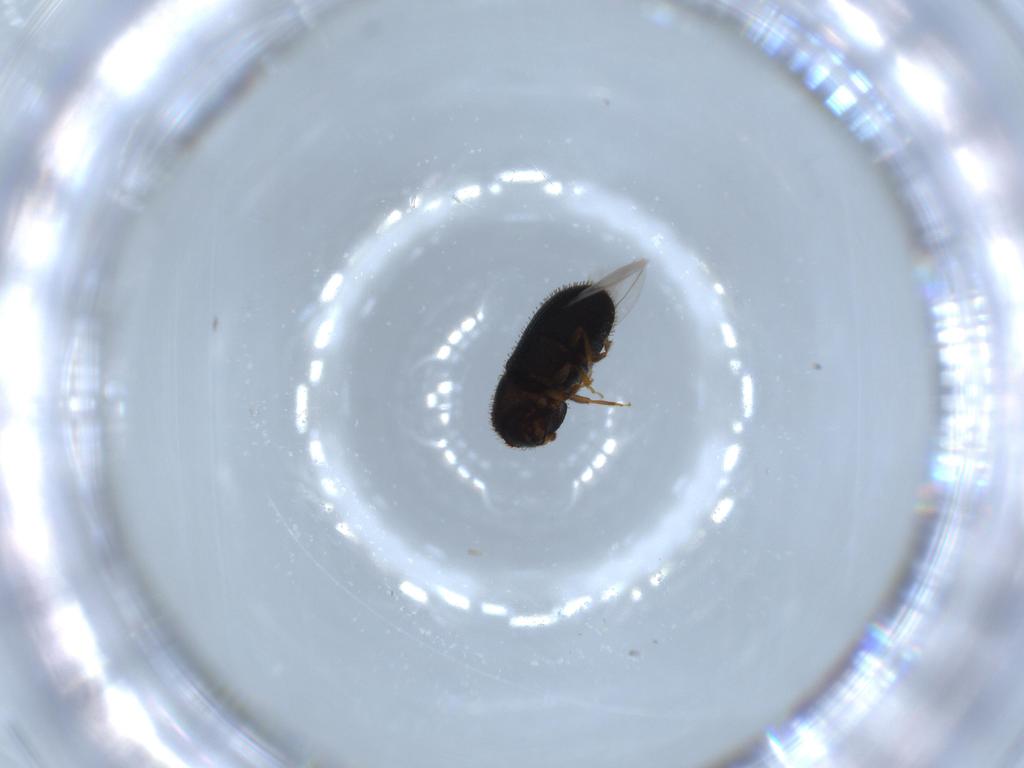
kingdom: Animalia
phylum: Arthropoda
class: Insecta
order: Coleoptera
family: Curculionidae
